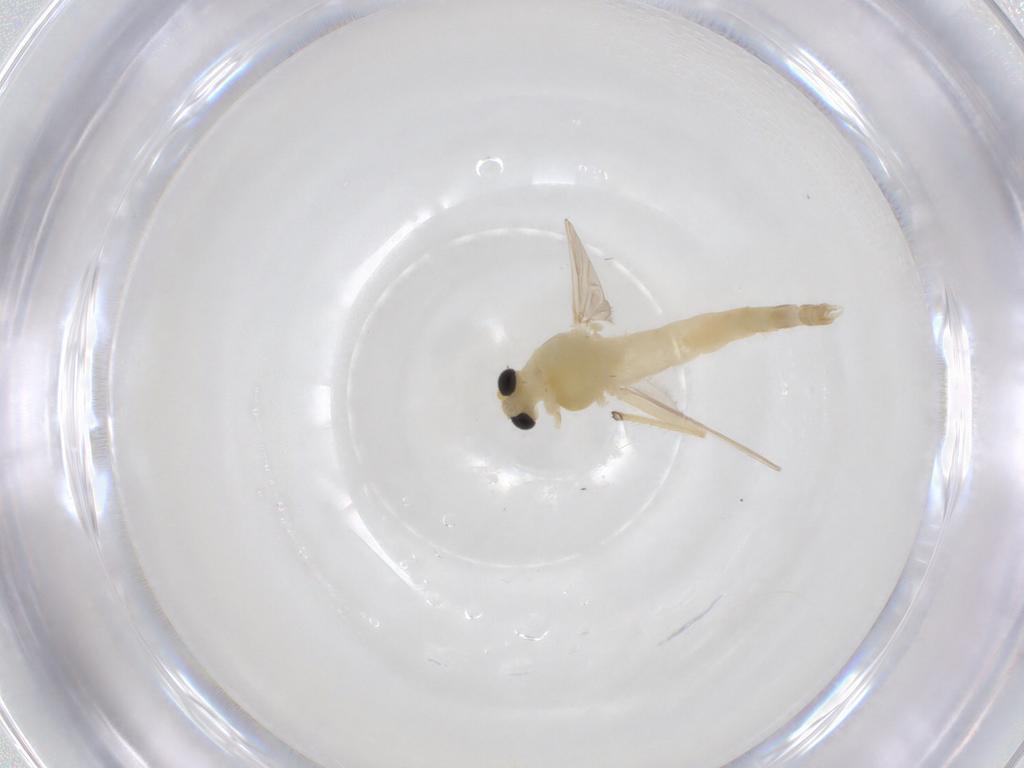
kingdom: Animalia
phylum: Arthropoda
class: Insecta
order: Diptera
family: Chironomidae
